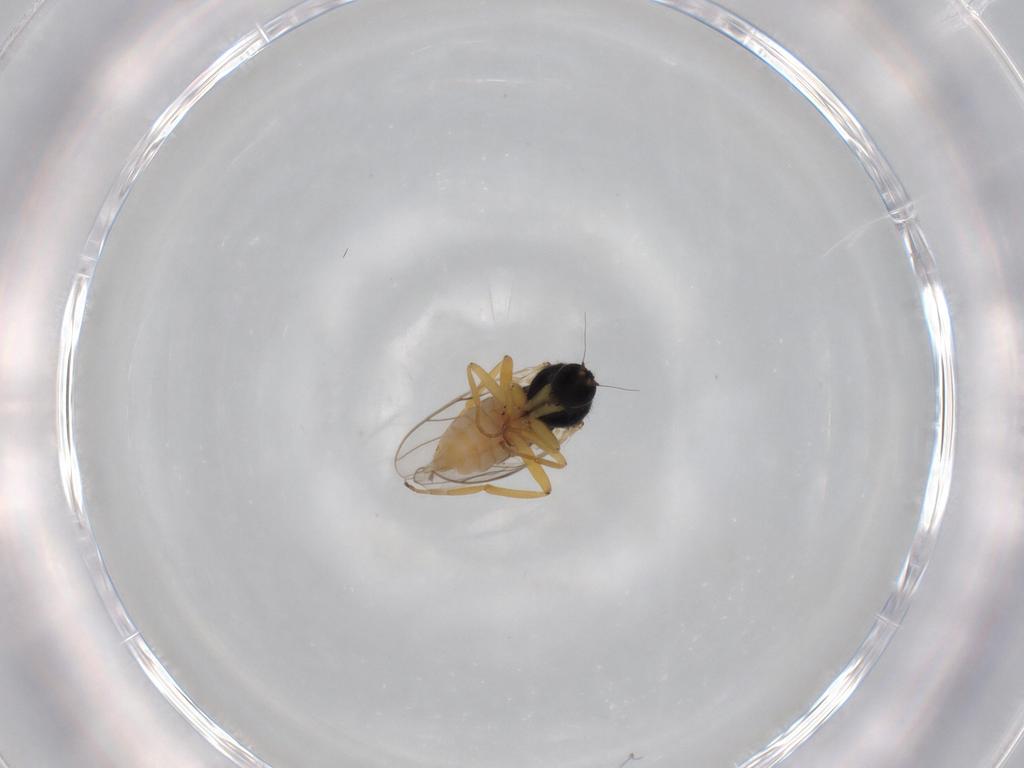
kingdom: Animalia
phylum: Arthropoda
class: Insecta
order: Diptera
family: Hybotidae
